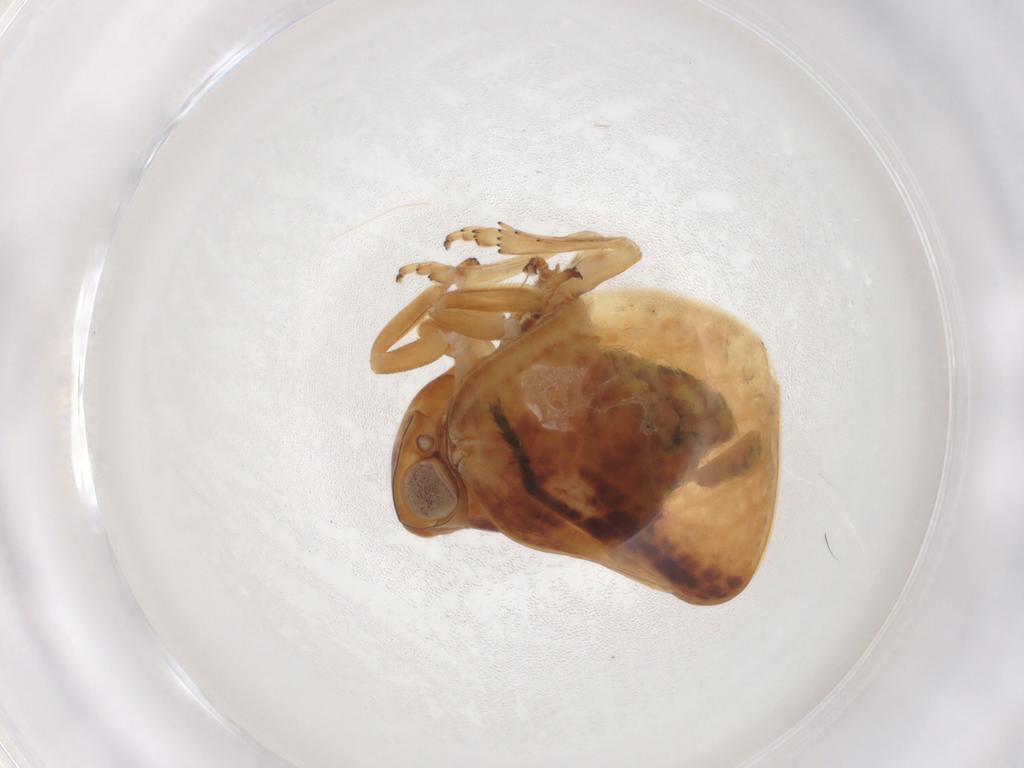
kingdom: Animalia
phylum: Arthropoda
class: Insecta
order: Hemiptera
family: Nogodinidae
